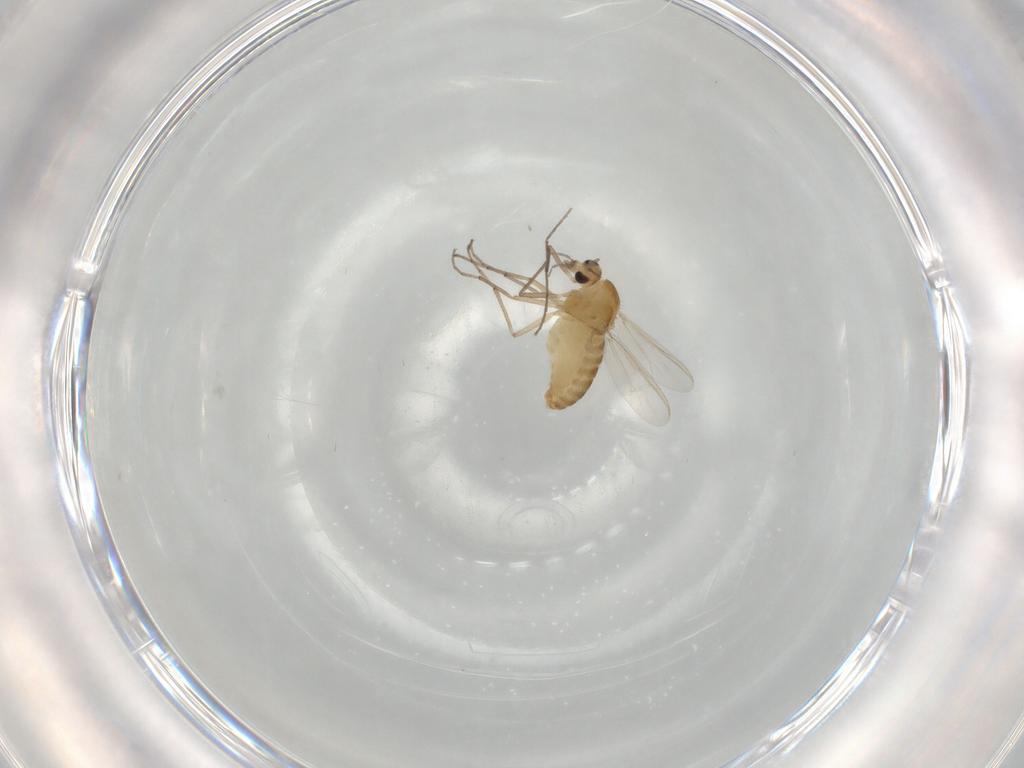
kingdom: Animalia
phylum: Arthropoda
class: Insecta
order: Diptera
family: Chironomidae
